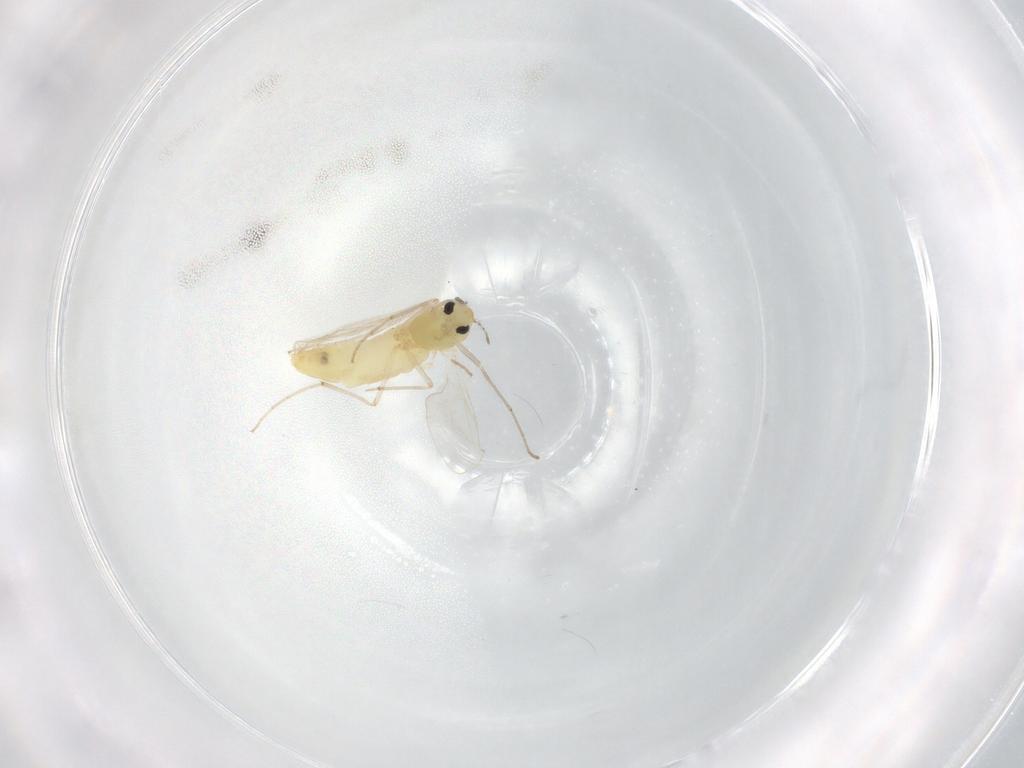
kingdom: Animalia
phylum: Arthropoda
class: Insecta
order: Diptera
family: Chironomidae
